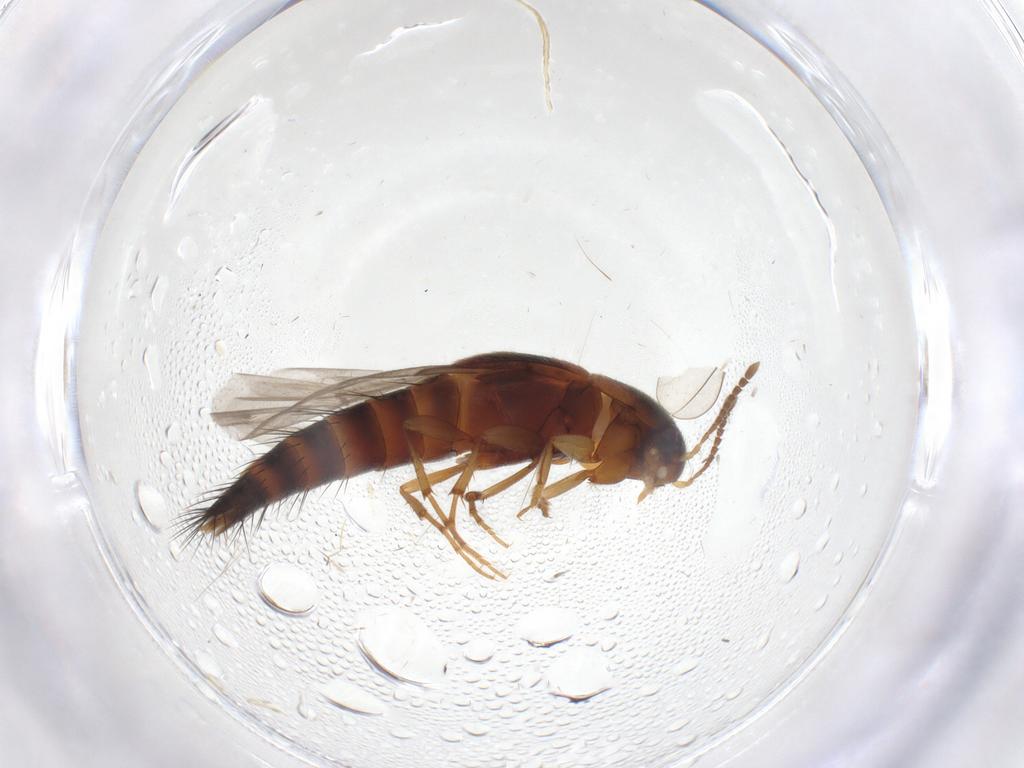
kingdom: Animalia
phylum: Arthropoda
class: Insecta
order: Coleoptera
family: Staphylinidae
